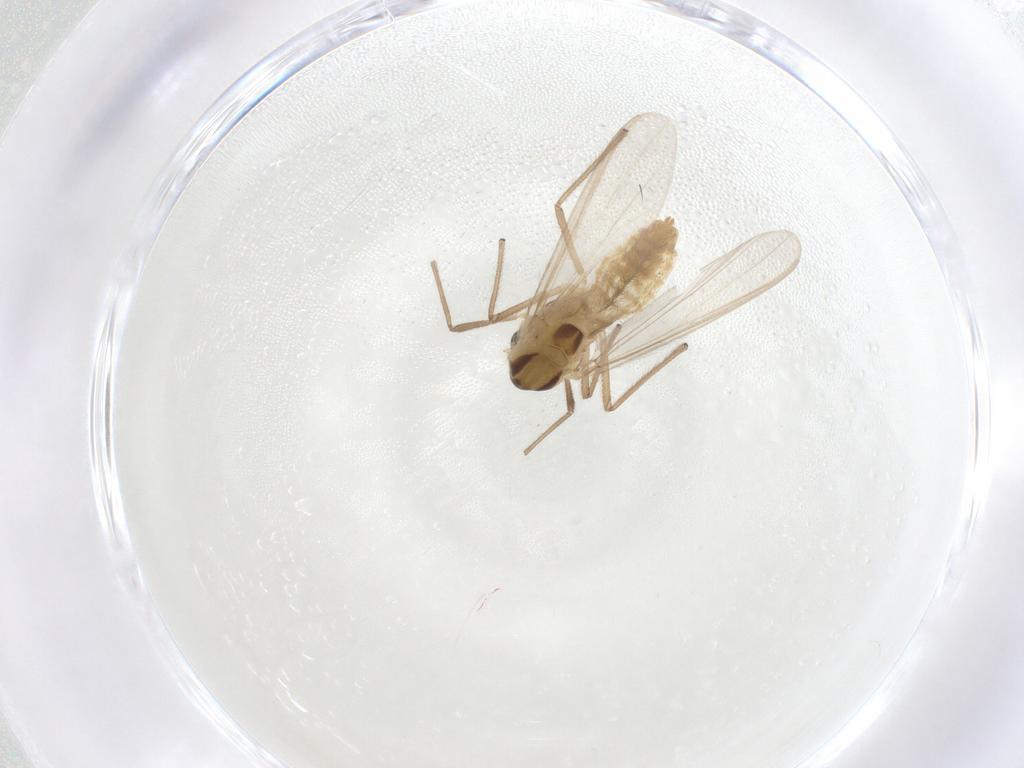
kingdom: Animalia
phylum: Arthropoda
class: Insecta
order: Diptera
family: Chironomidae
